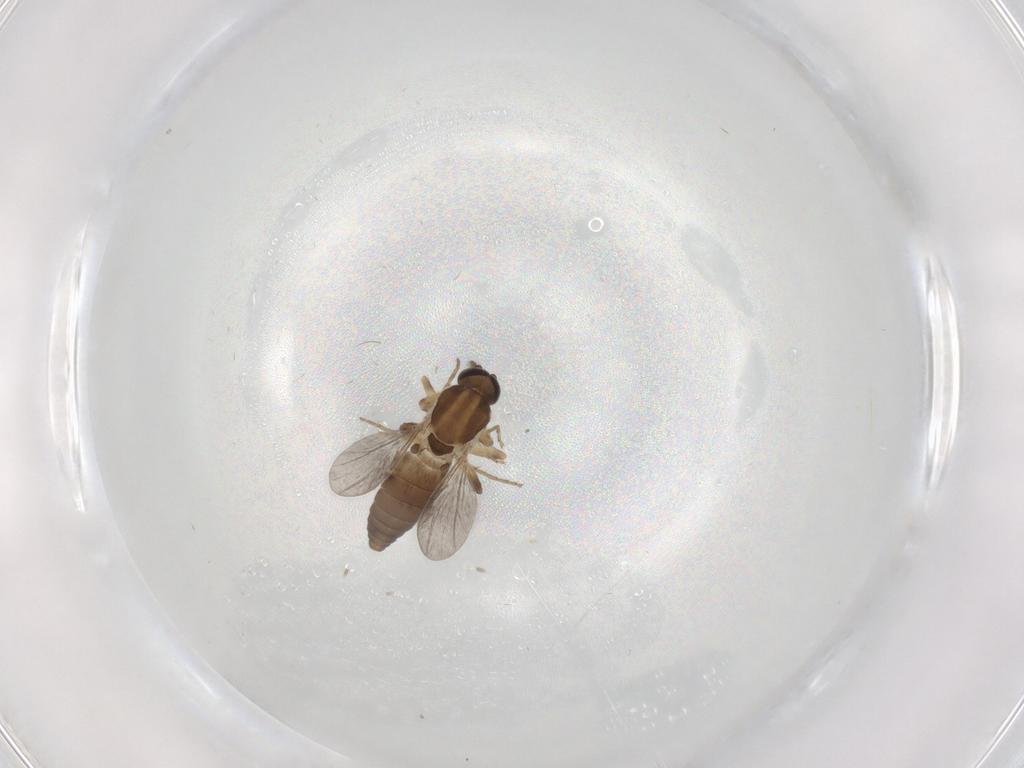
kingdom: Animalia
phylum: Arthropoda
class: Insecta
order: Diptera
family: Ceratopogonidae
